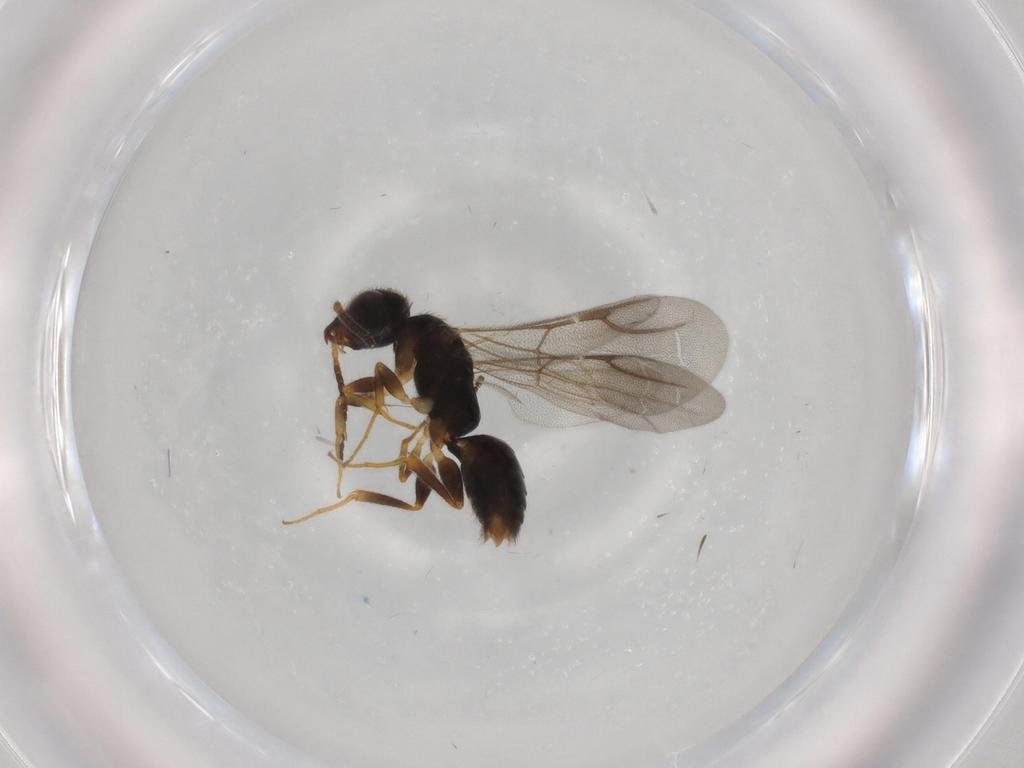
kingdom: Animalia
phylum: Arthropoda
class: Insecta
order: Hymenoptera
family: Bethylidae
